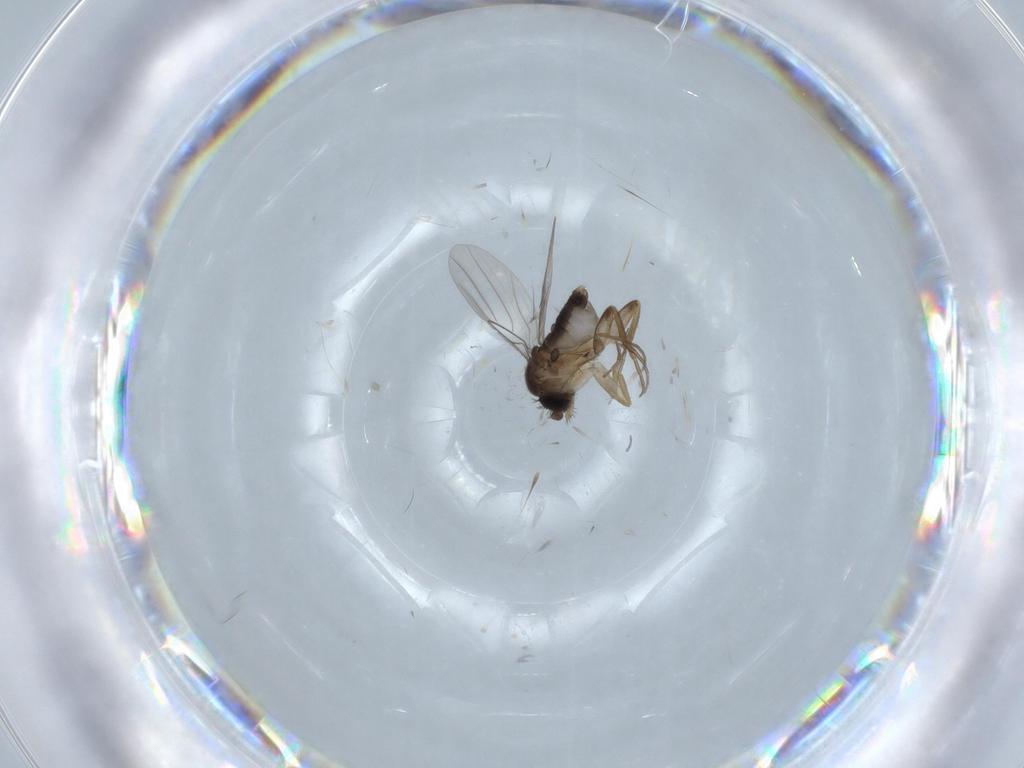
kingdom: Animalia
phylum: Arthropoda
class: Insecta
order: Diptera
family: Phoridae
